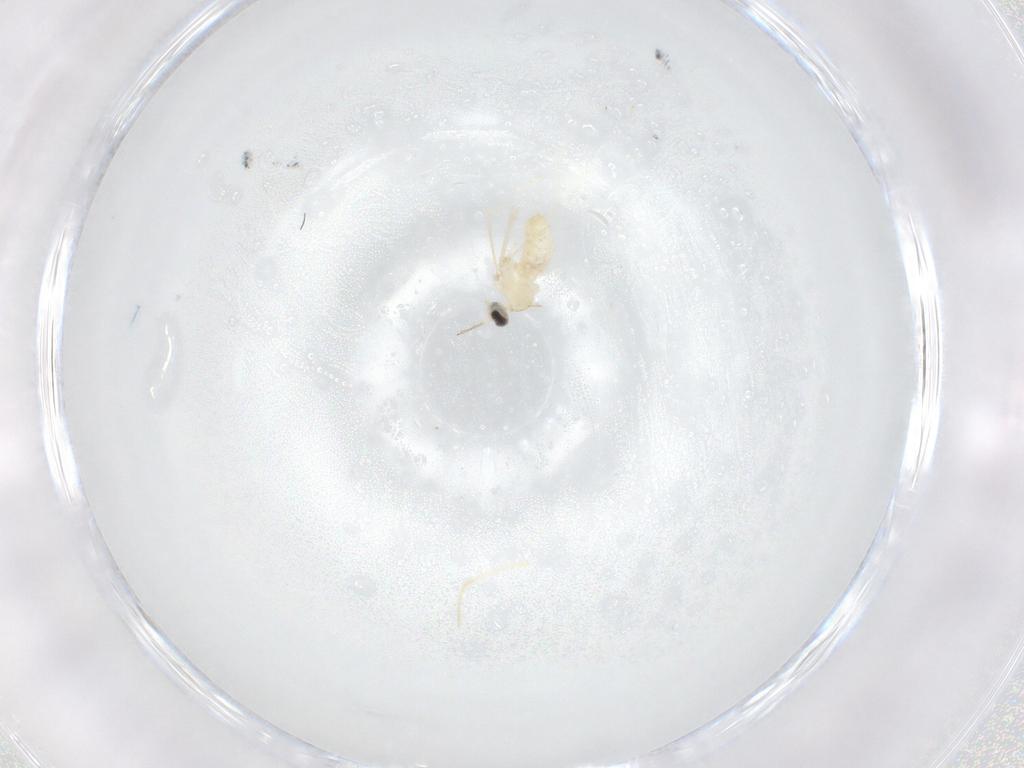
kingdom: Animalia
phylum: Arthropoda
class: Insecta
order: Diptera
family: Cecidomyiidae
